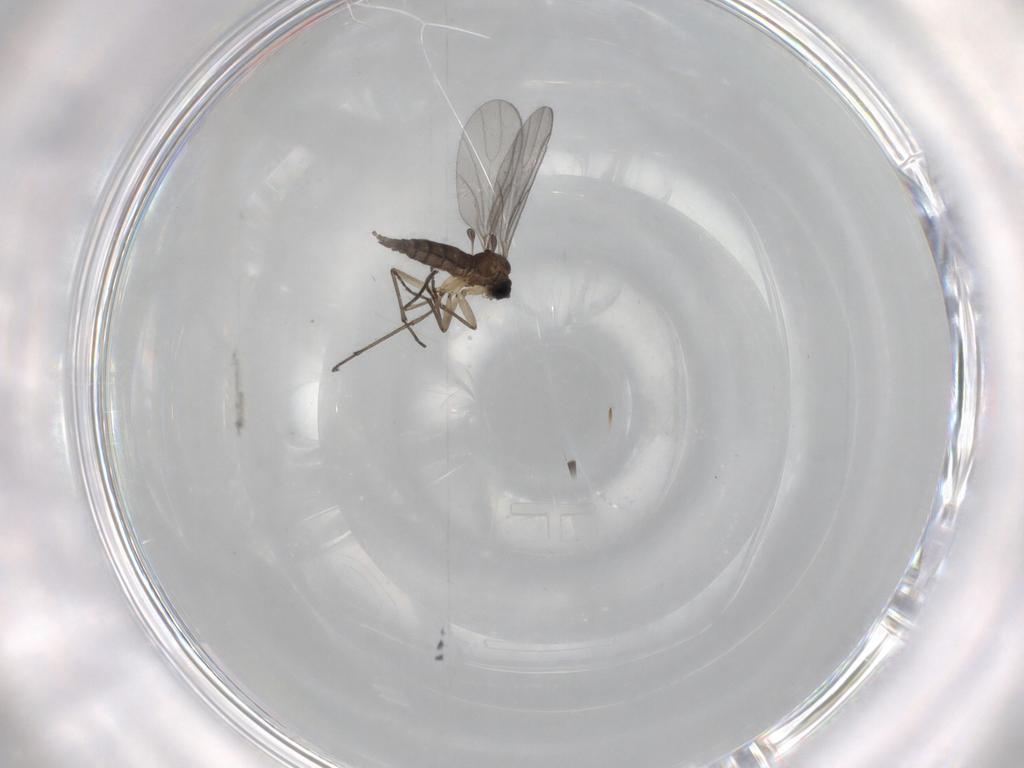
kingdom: Animalia
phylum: Arthropoda
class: Insecta
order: Diptera
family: Sciaridae
